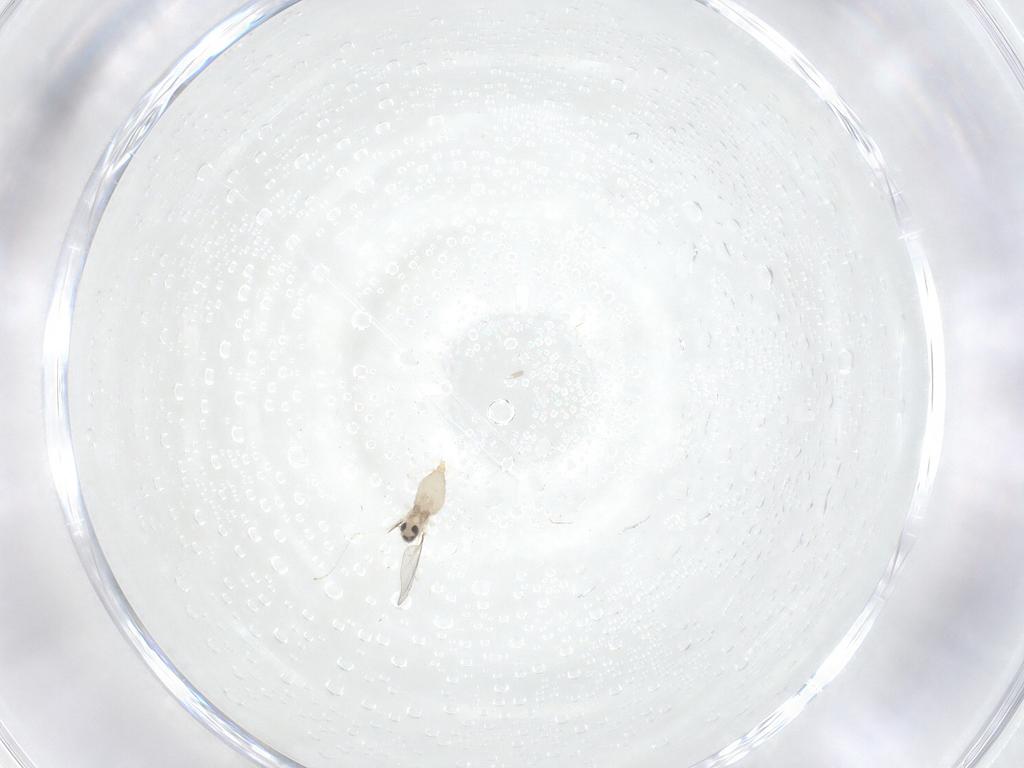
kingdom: Animalia
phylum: Arthropoda
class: Insecta
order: Diptera
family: Cecidomyiidae
